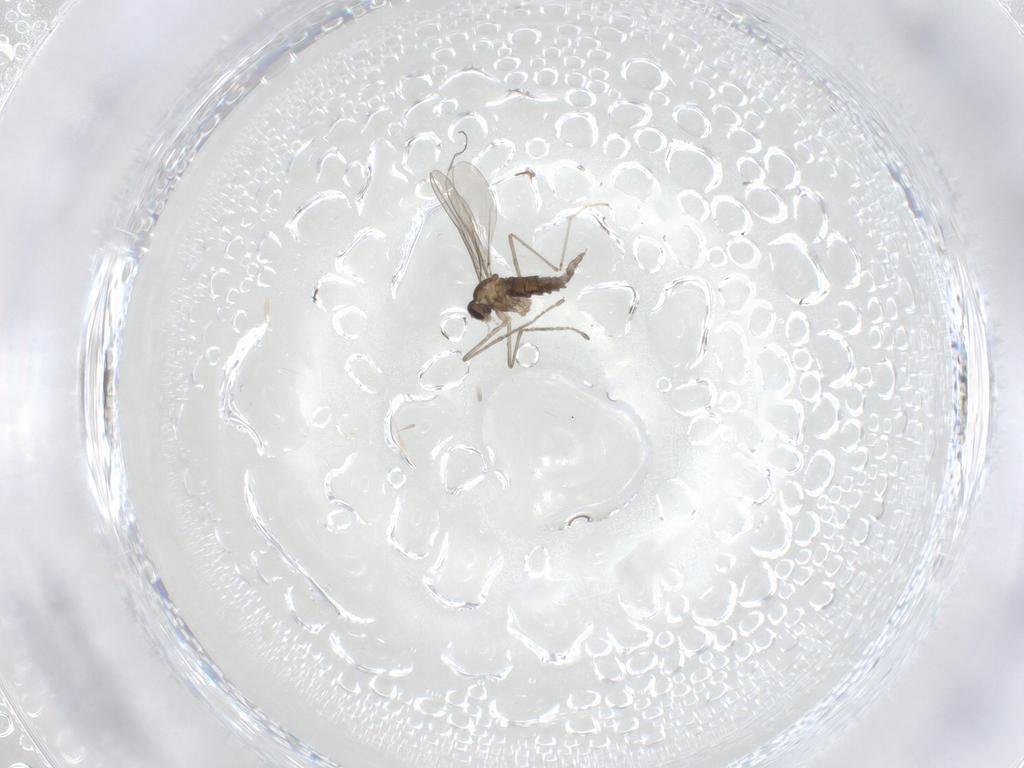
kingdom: Animalia
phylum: Arthropoda
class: Insecta
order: Diptera
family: Cecidomyiidae
